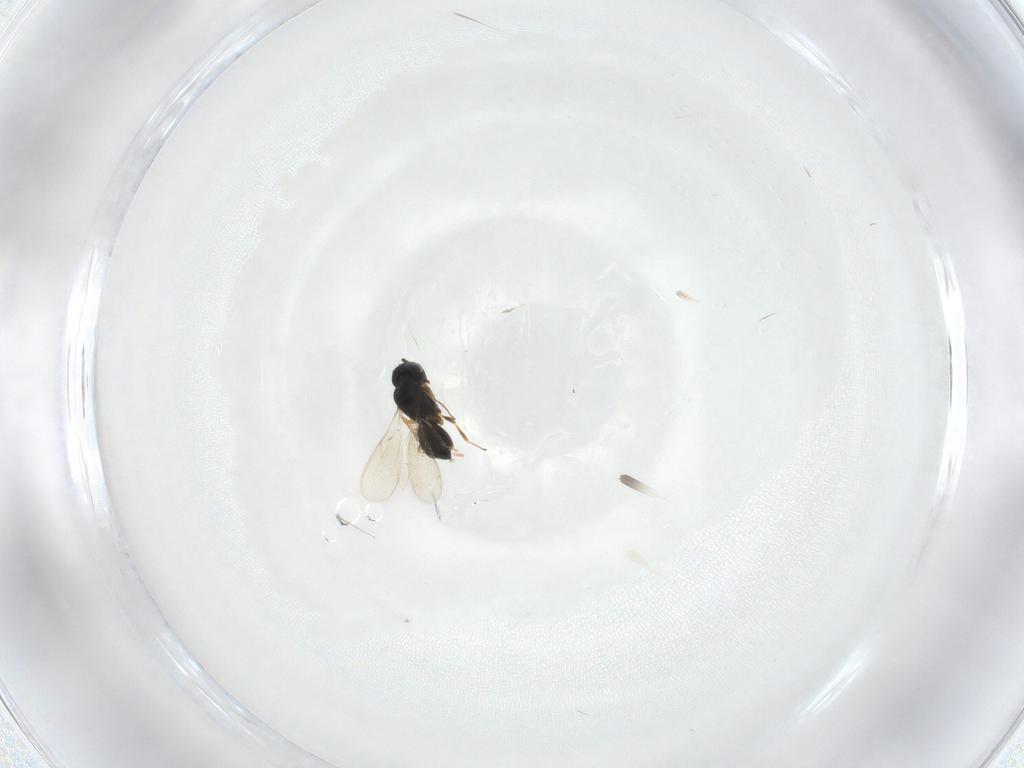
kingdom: Animalia
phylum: Arthropoda
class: Insecta
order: Hymenoptera
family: Scelionidae
